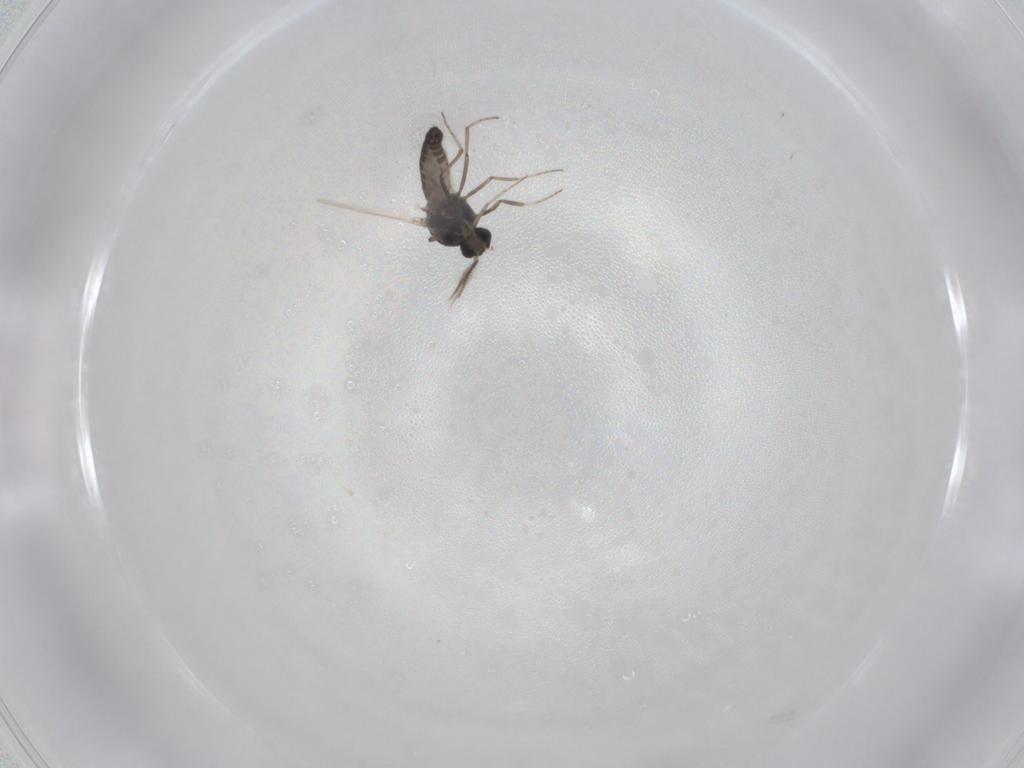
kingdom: Animalia
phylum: Arthropoda
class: Insecta
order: Diptera
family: Ceratopogonidae
